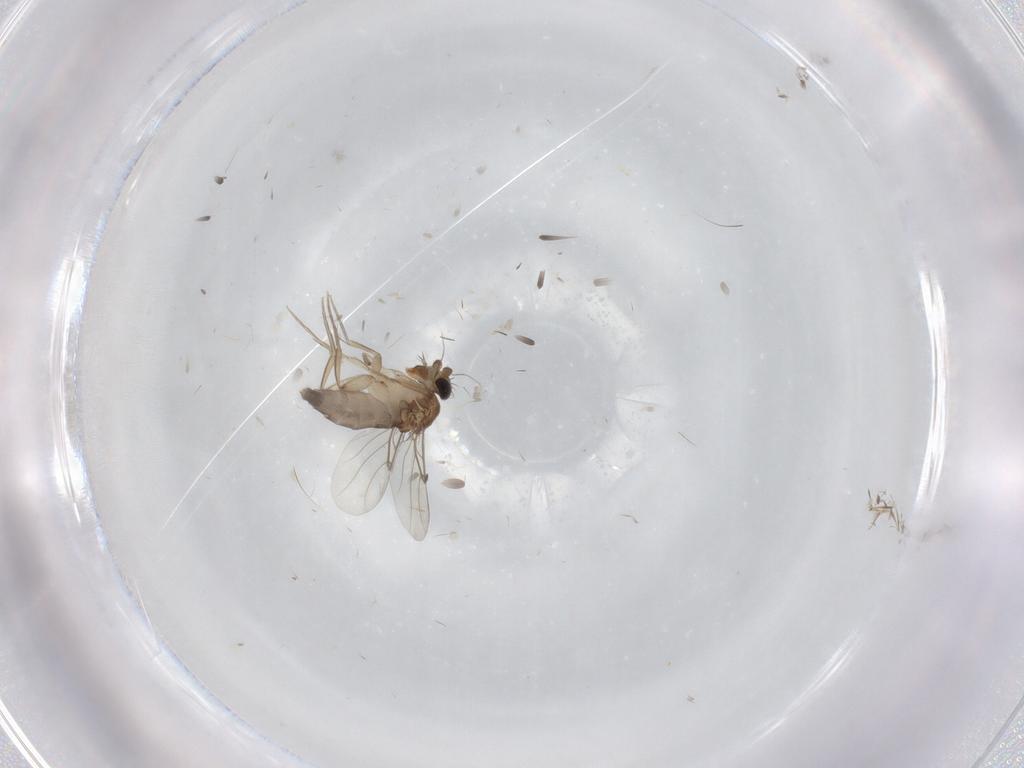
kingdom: Animalia
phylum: Arthropoda
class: Insecta
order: Diptera
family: Phoridae
